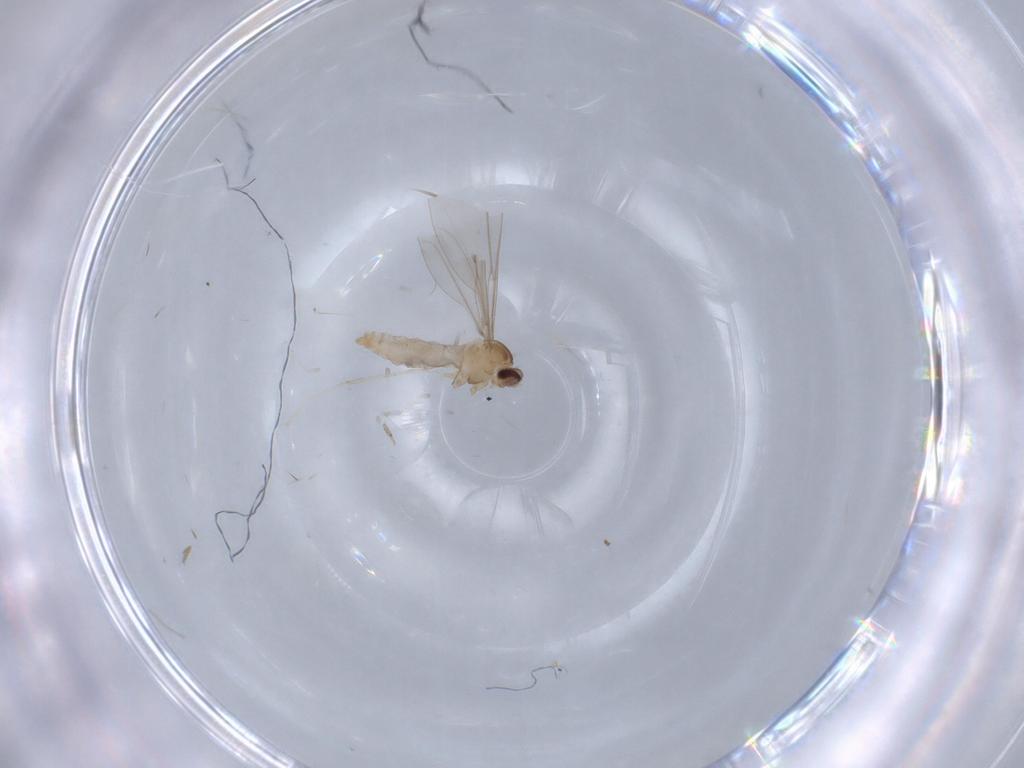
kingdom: Animalia
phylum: Arthropoda
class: Insecta
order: Diptera
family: Cecidomyiidae
